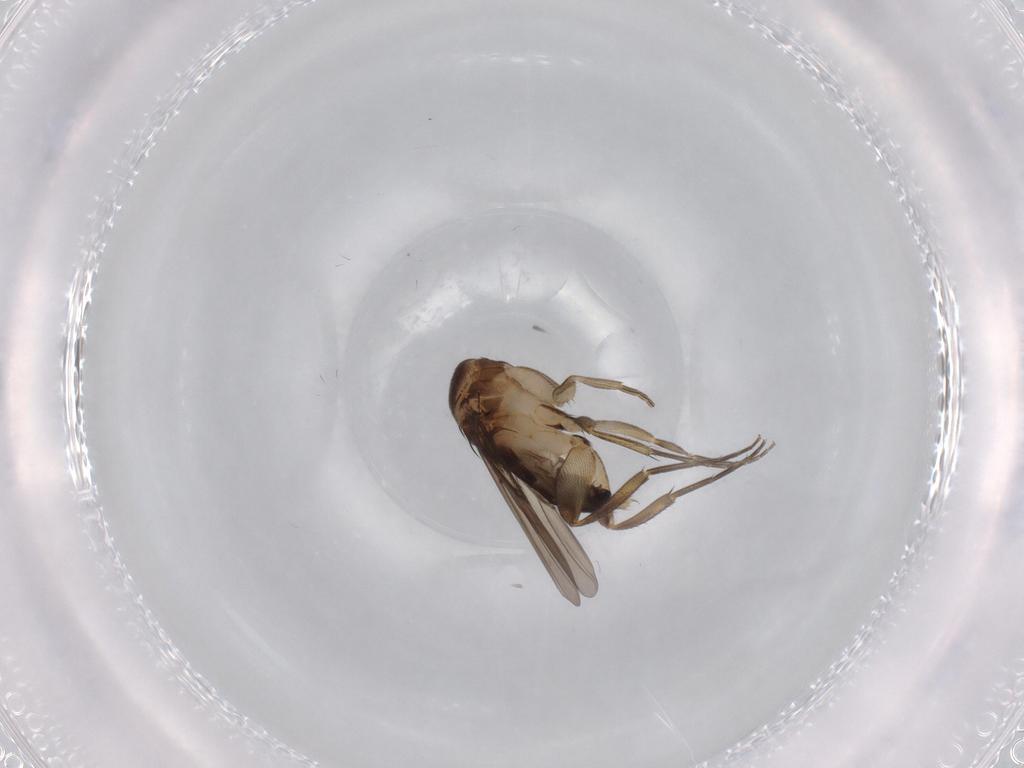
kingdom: Animalia
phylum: Arthropoda
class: Insecta
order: Diptera
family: Phoridae
